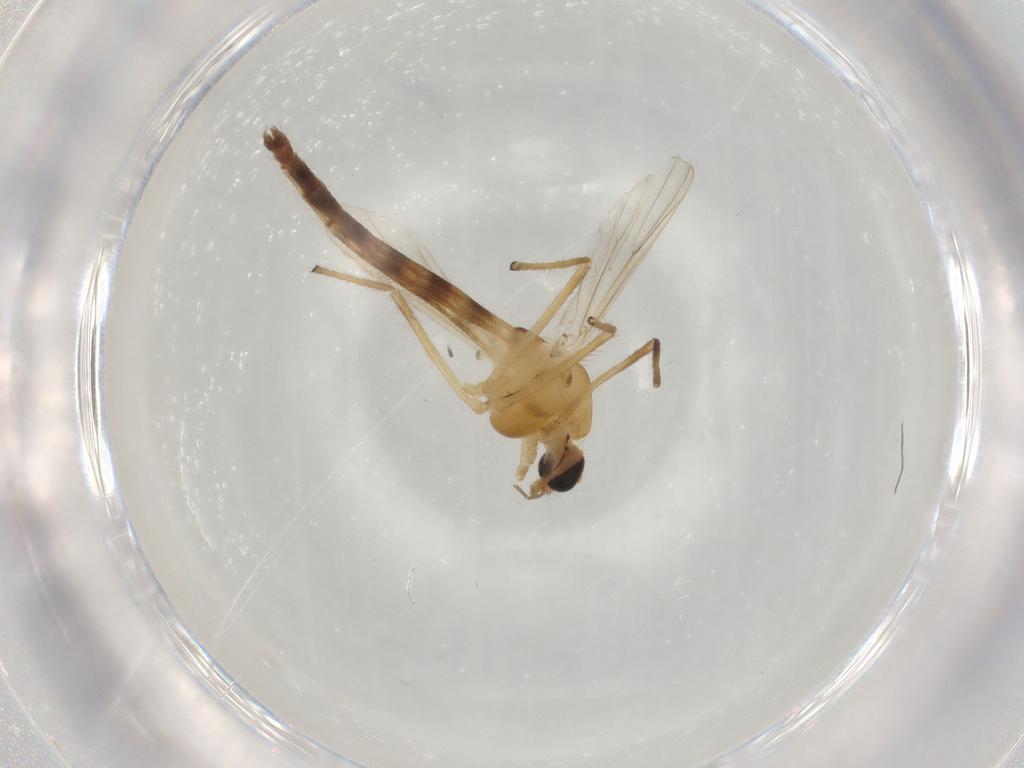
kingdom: Animalia
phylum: Arthropoda
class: Insecta
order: Diptera
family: Chironomidae
